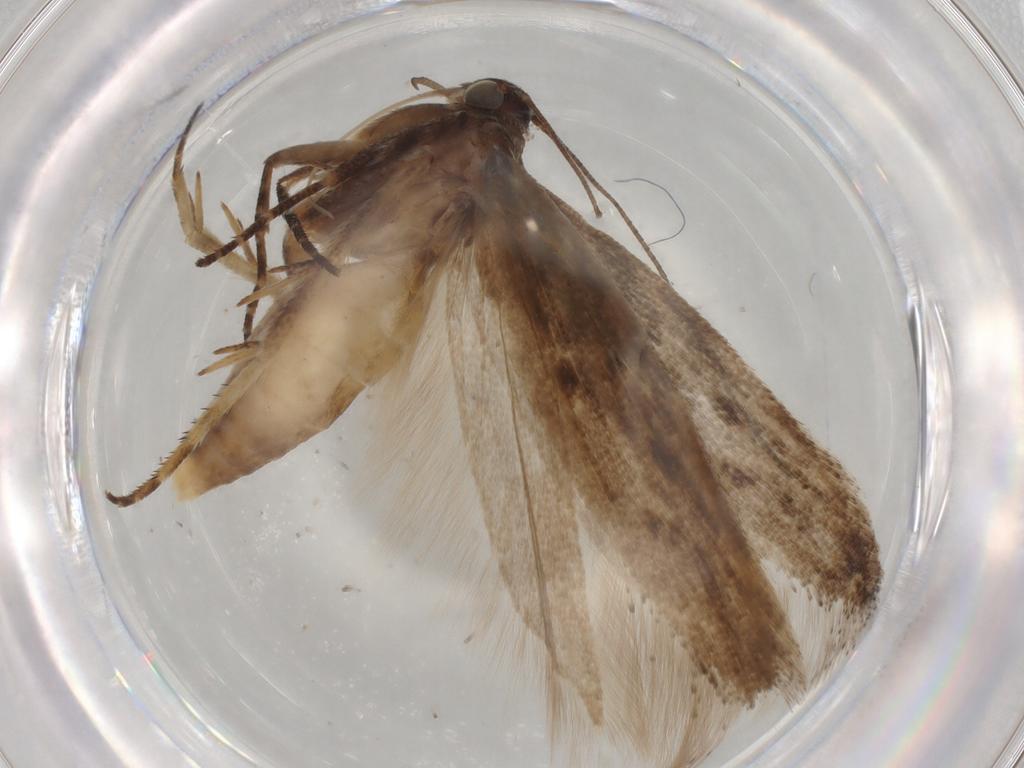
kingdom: Animalia
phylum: Arthropoda
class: Insecta
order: Lepidoptera
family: Gelechiidae
